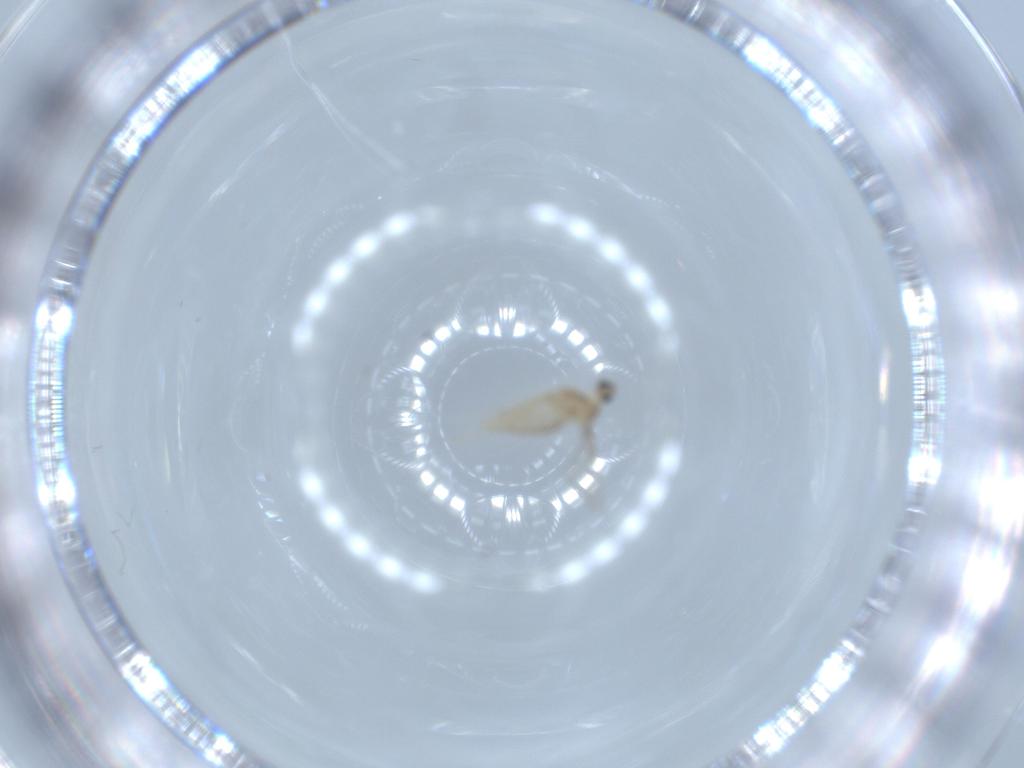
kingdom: Animalia
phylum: Arthropoda
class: Insecta
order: Diptera
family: Cecidomyiidae
